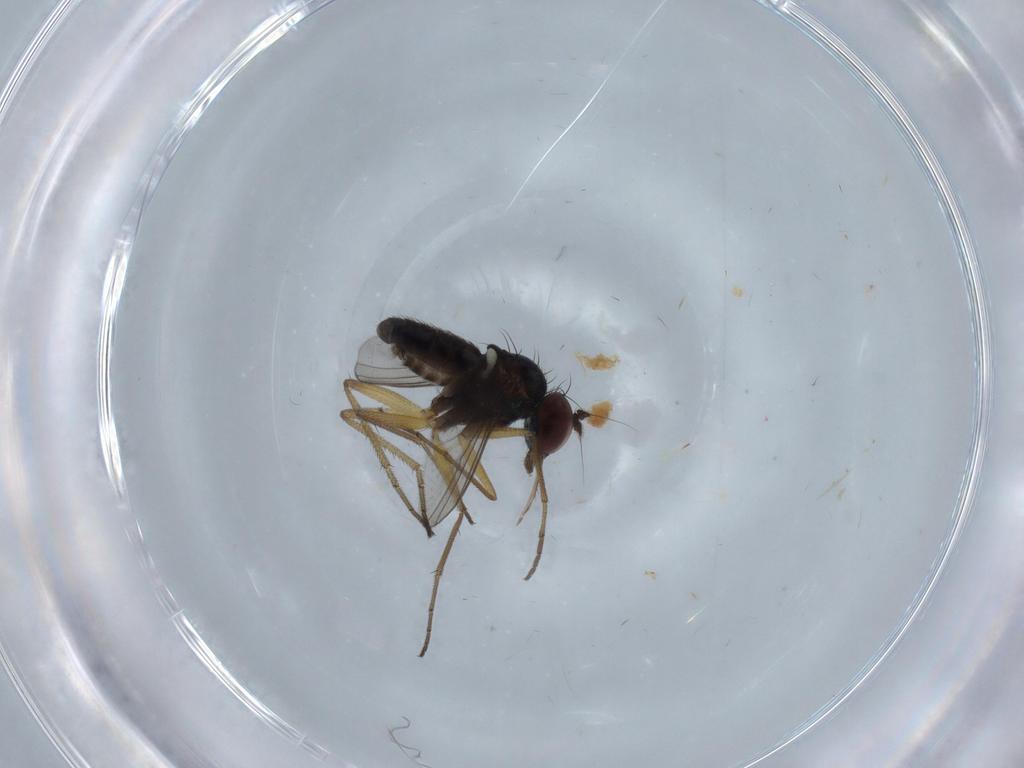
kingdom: Animalia
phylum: Arthropoda
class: Insecta
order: Diptera
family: Dolichopodidae
